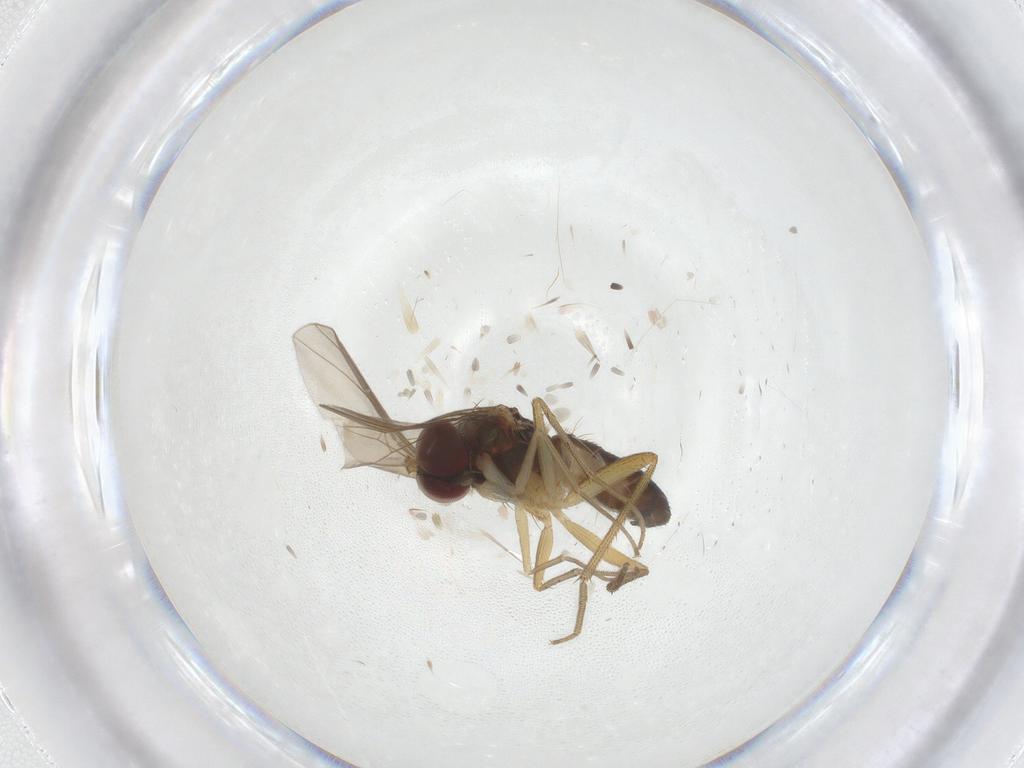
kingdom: Animalia
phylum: Arthropoda
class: Insecta
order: Diptera
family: Dolichopodidae
